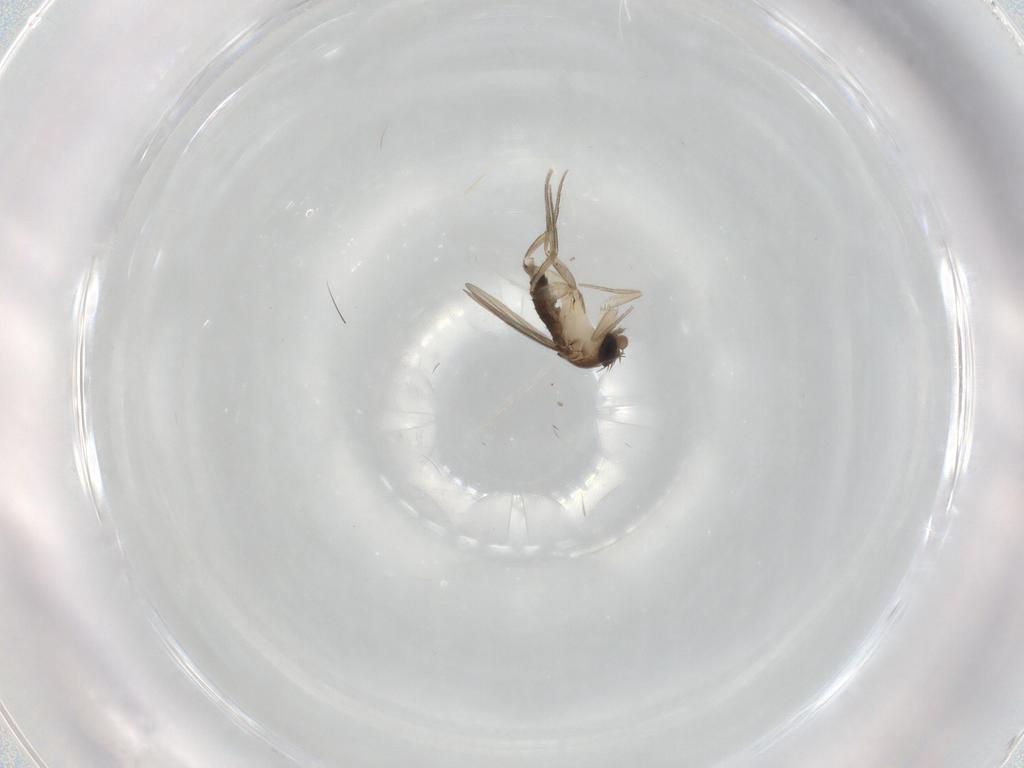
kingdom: Animalia
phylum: Arthropoda
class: Insecta
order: Diptera
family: Phoridae
